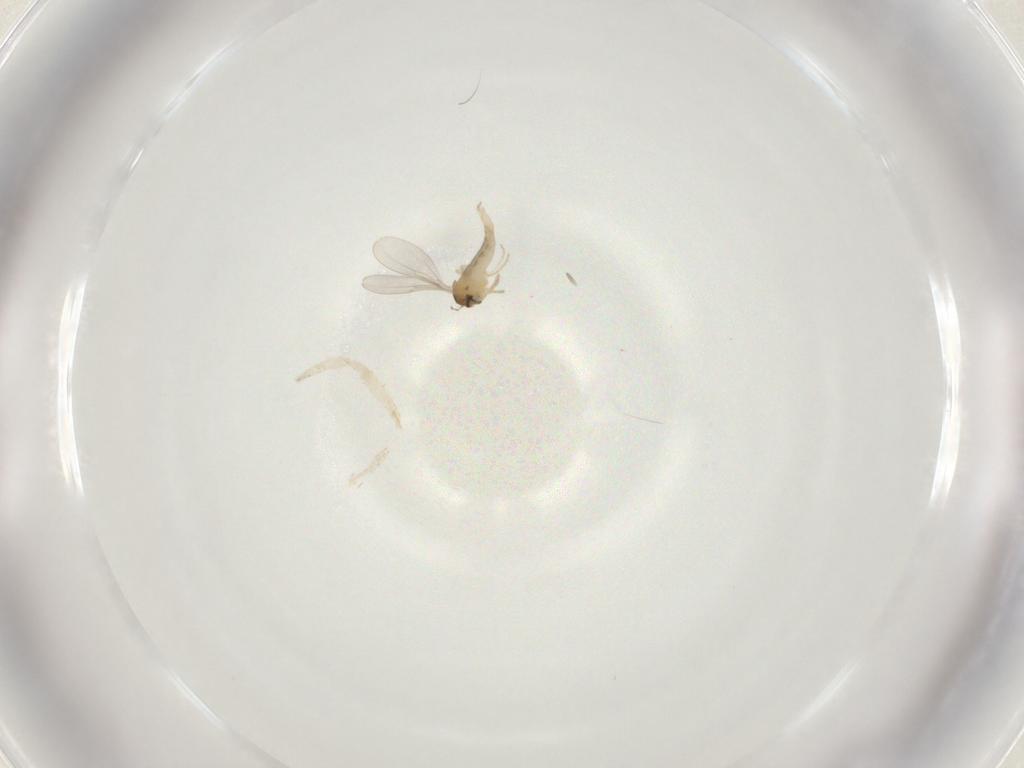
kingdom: Animalia
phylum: Arthropoda
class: Insecta
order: Diptera
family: Cecidomyiidae
